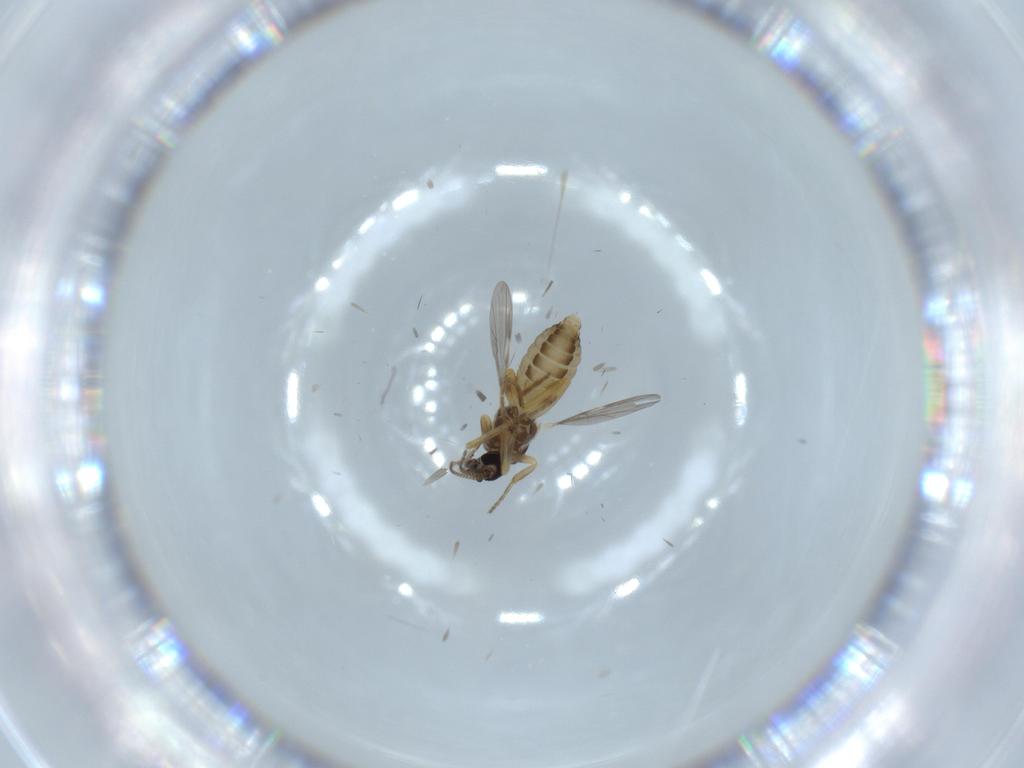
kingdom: Animalia
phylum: Arthropoda
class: Insecta
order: Diptera
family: Ceratopogonidae
